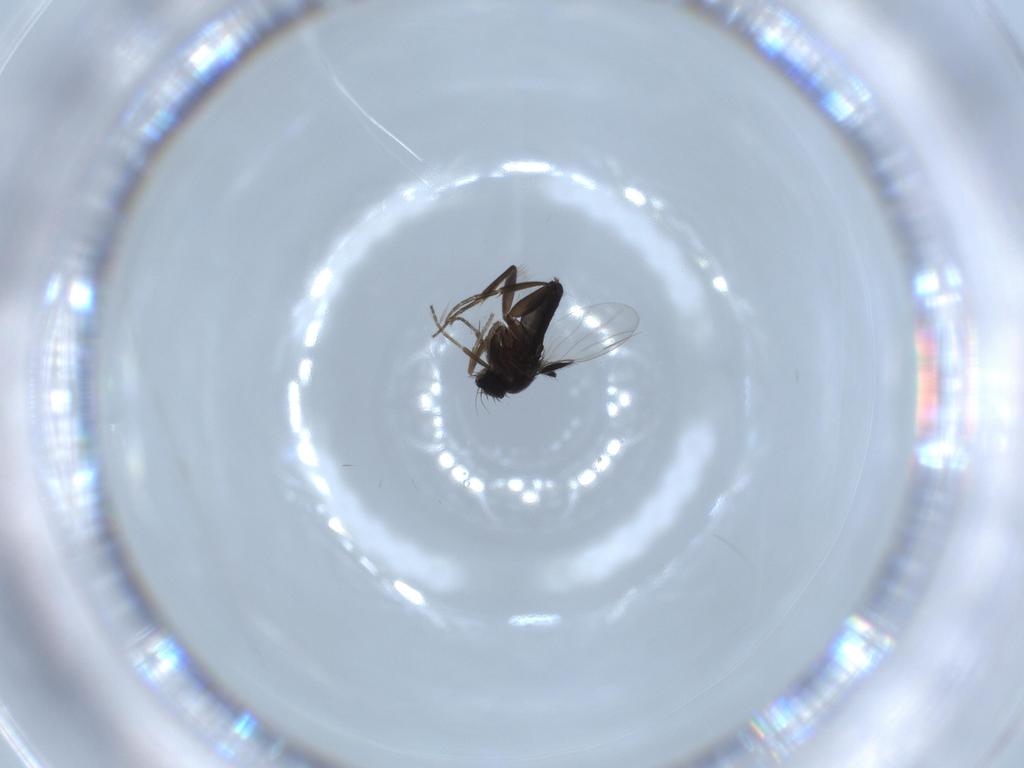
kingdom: Animalia
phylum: Arthropoda
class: Insecta
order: Diptera
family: Phoridae
